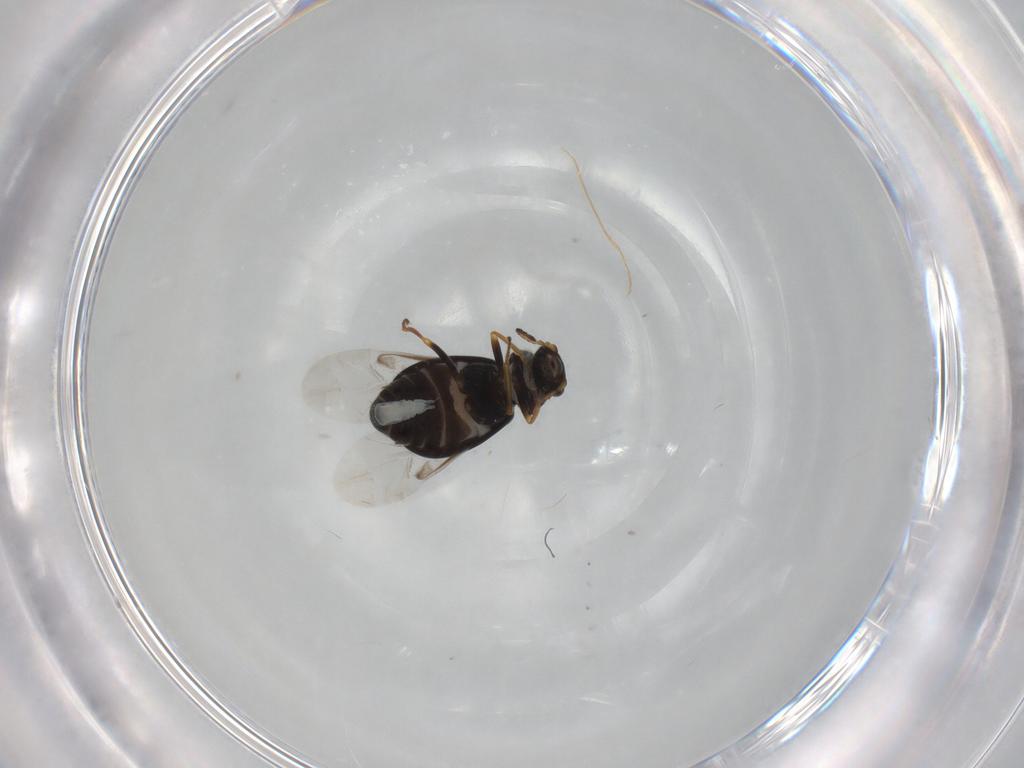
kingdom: Animalia
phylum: Arthropoda
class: Insecta
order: Coleoptera
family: Melyridae
